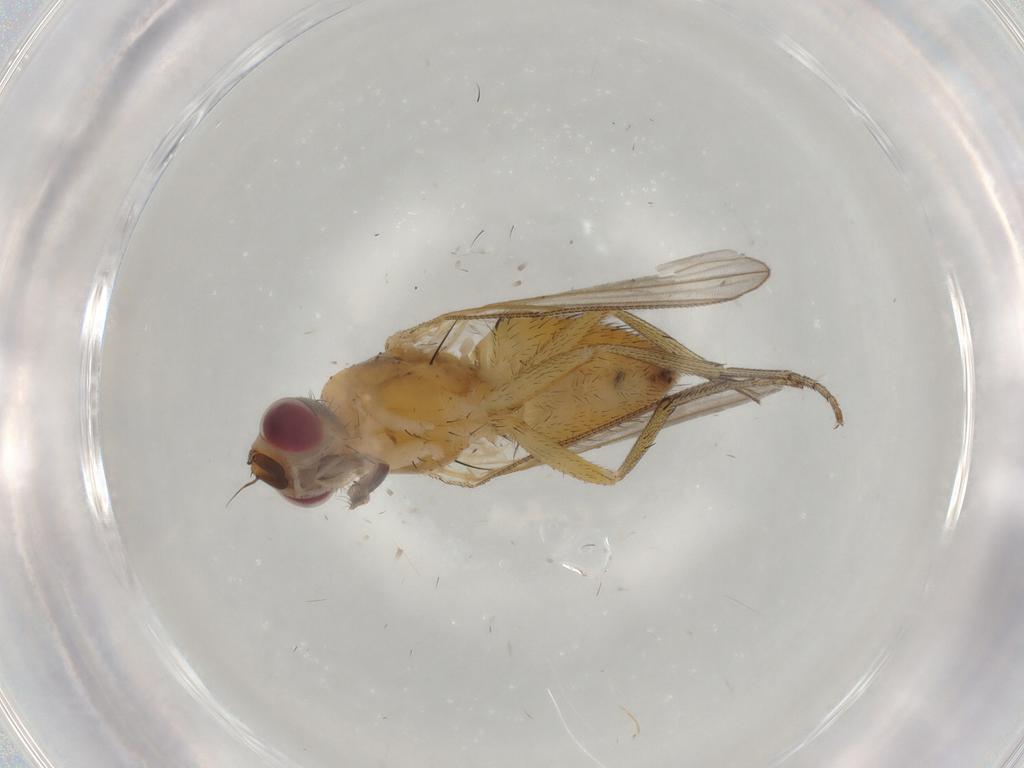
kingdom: Animalia
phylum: Arthropoda
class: Insecta
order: Diptera
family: Muscidae
